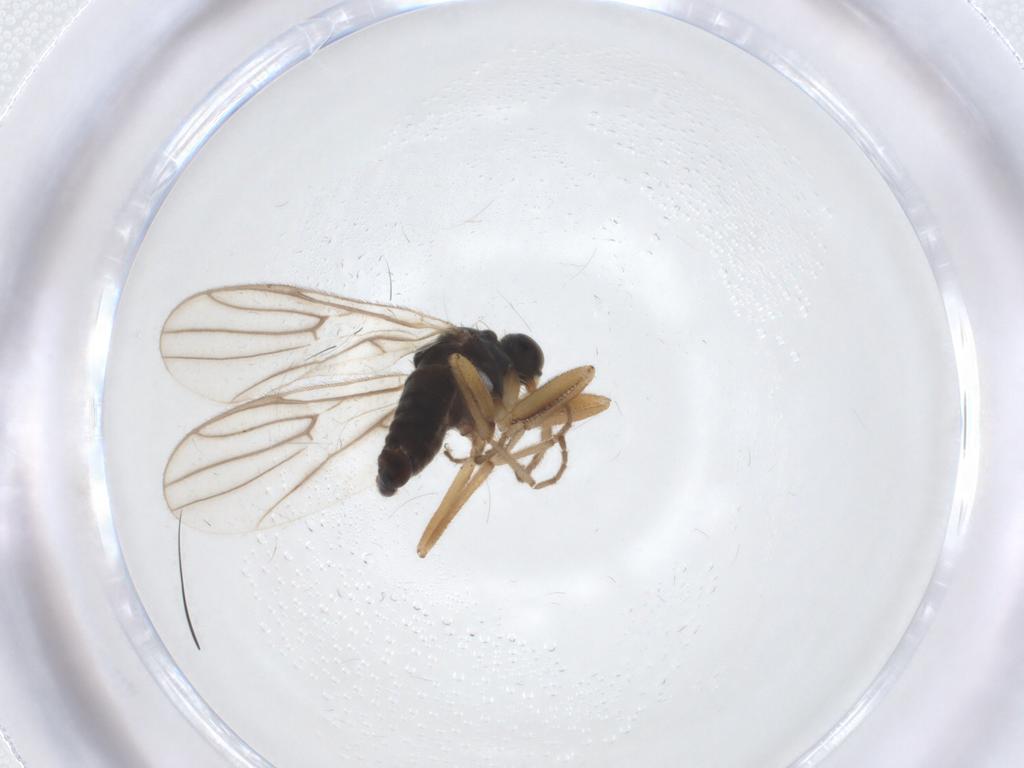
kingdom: Animalia
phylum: Arthropoda
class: Insecta
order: Diptera
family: Hybotidae
